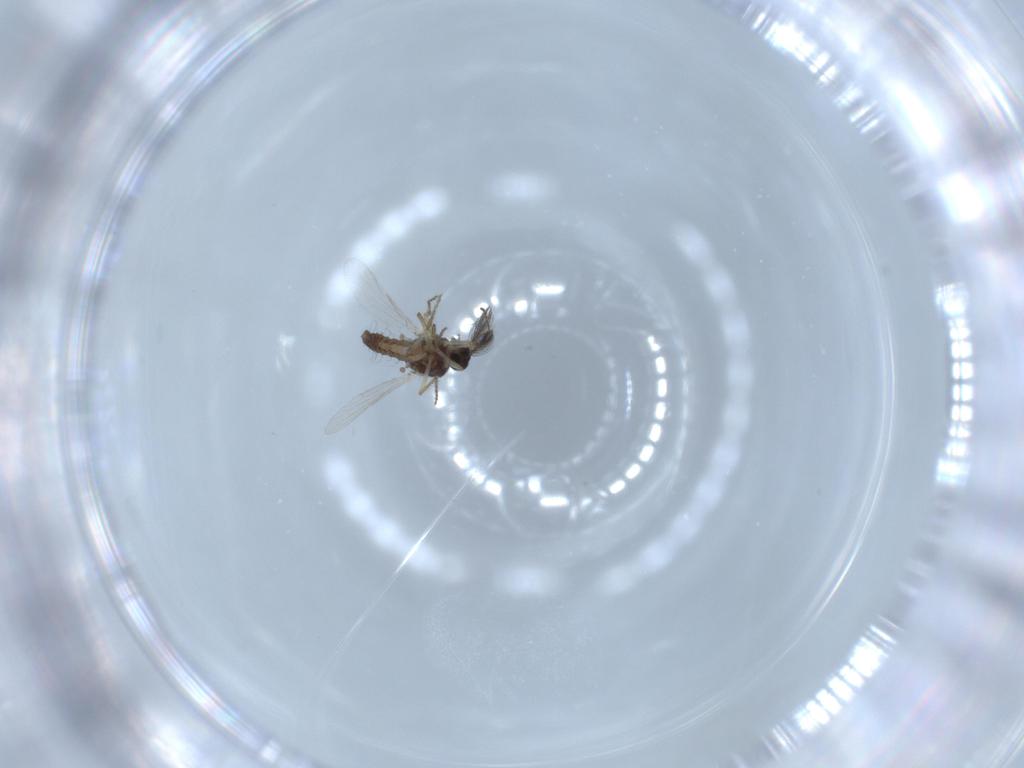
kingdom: Animalia
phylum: Arthropoda
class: Insecta
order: Diptera
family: Ceratopogonidae
